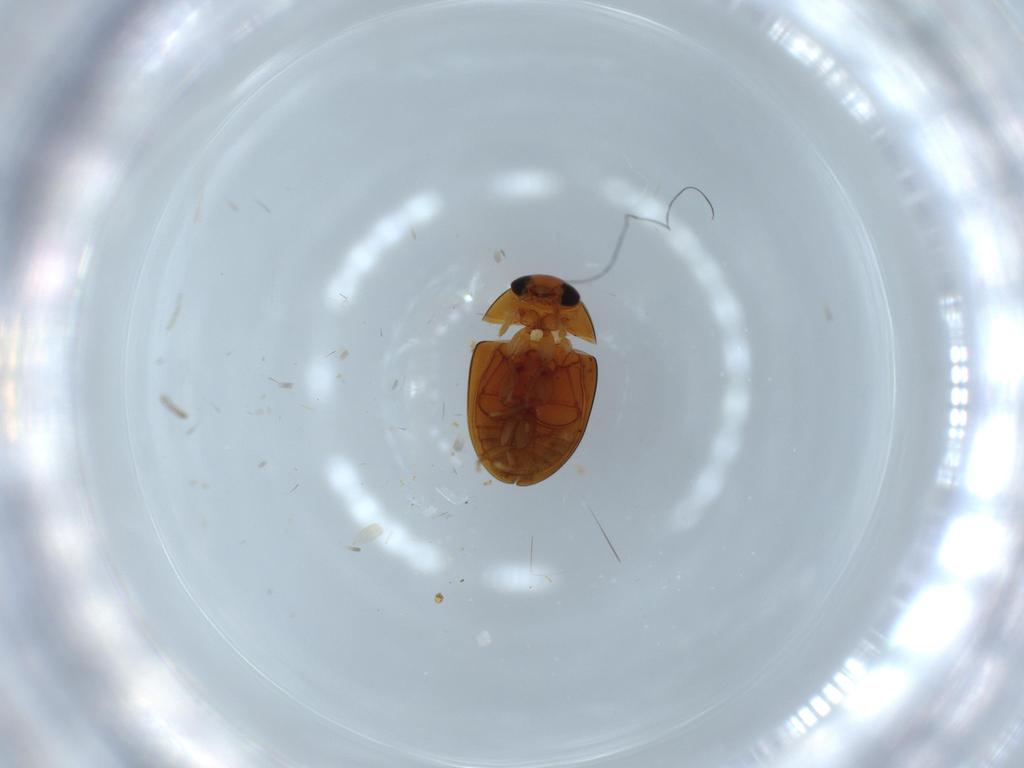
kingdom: Animalia
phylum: Arthropoda
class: Insecta
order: Coleoptera
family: Phalacridae
